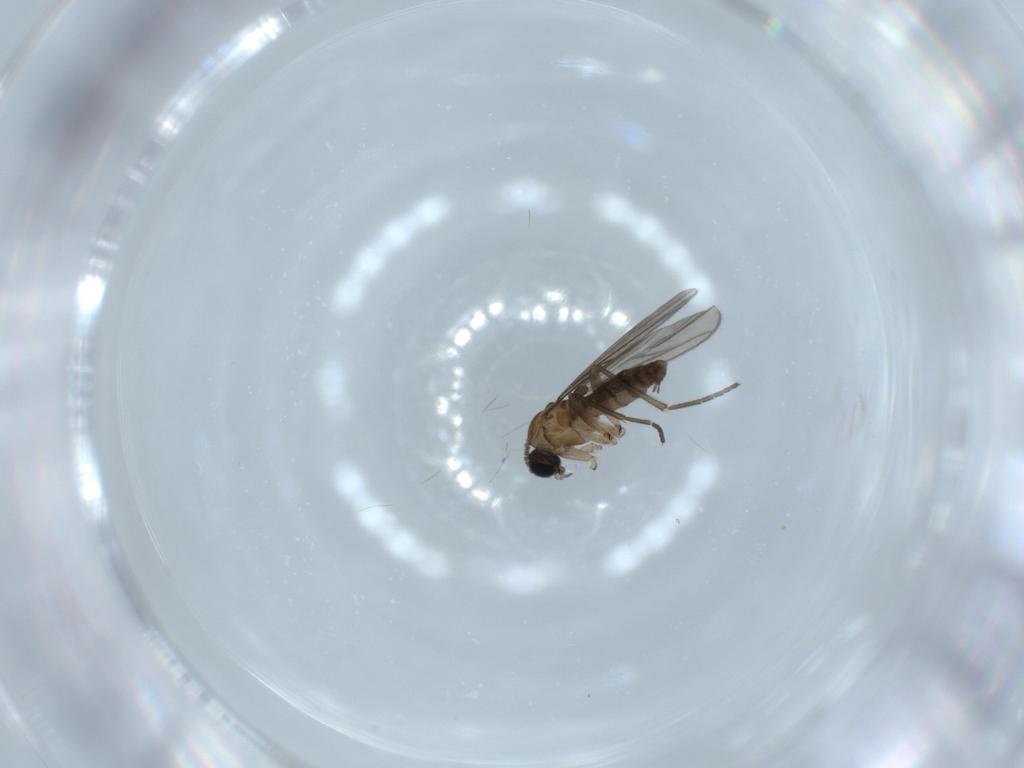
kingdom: Animalia
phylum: Arthropoda
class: Insecta
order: Diptera
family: Sciaridae
